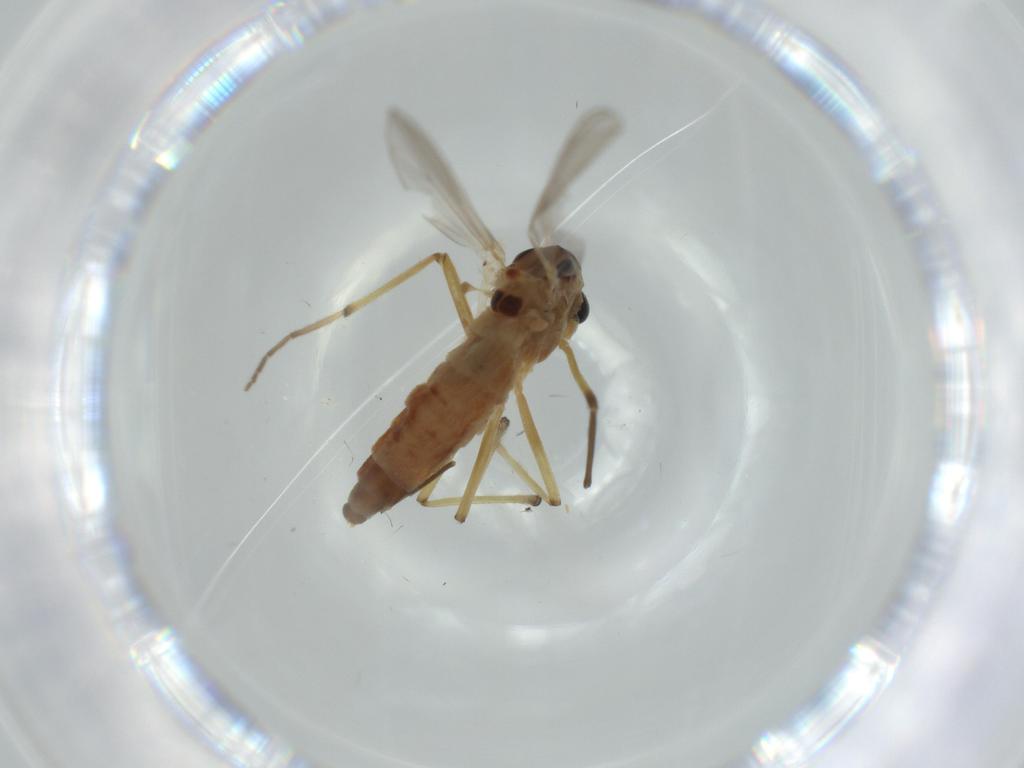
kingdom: Animalia
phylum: Arthropoda
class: Insecta
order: Diptera
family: Chironomidae
